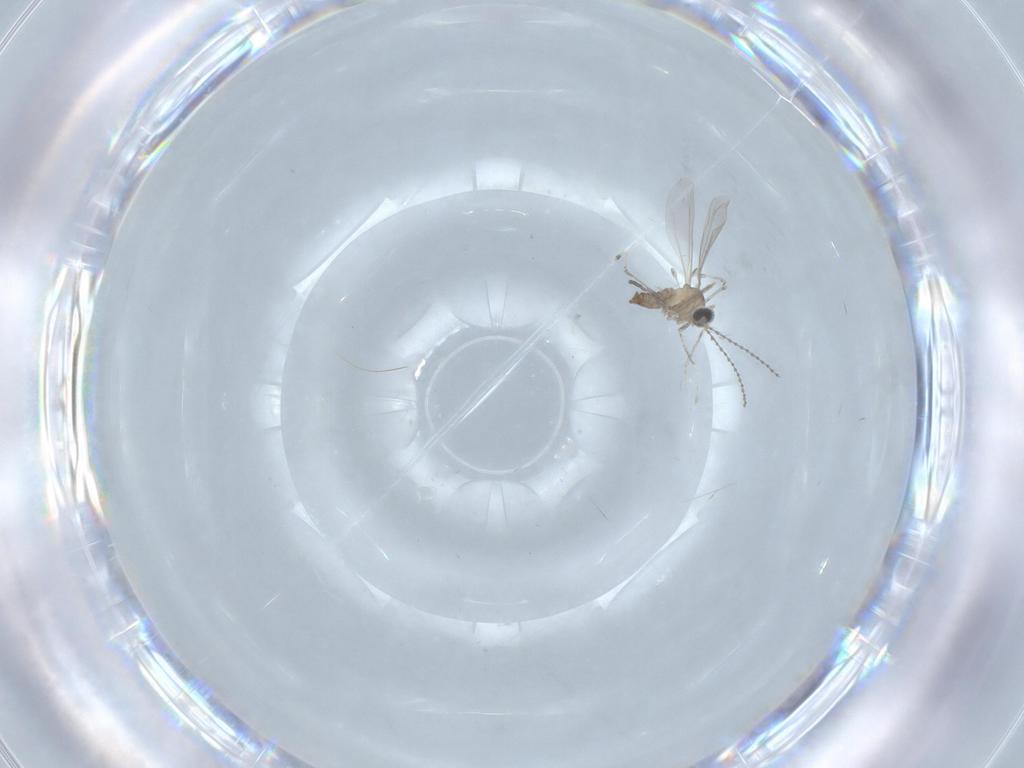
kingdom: Animalia
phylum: Arthropoda
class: Insecta
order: Diptera
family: Cecidomyiidae
